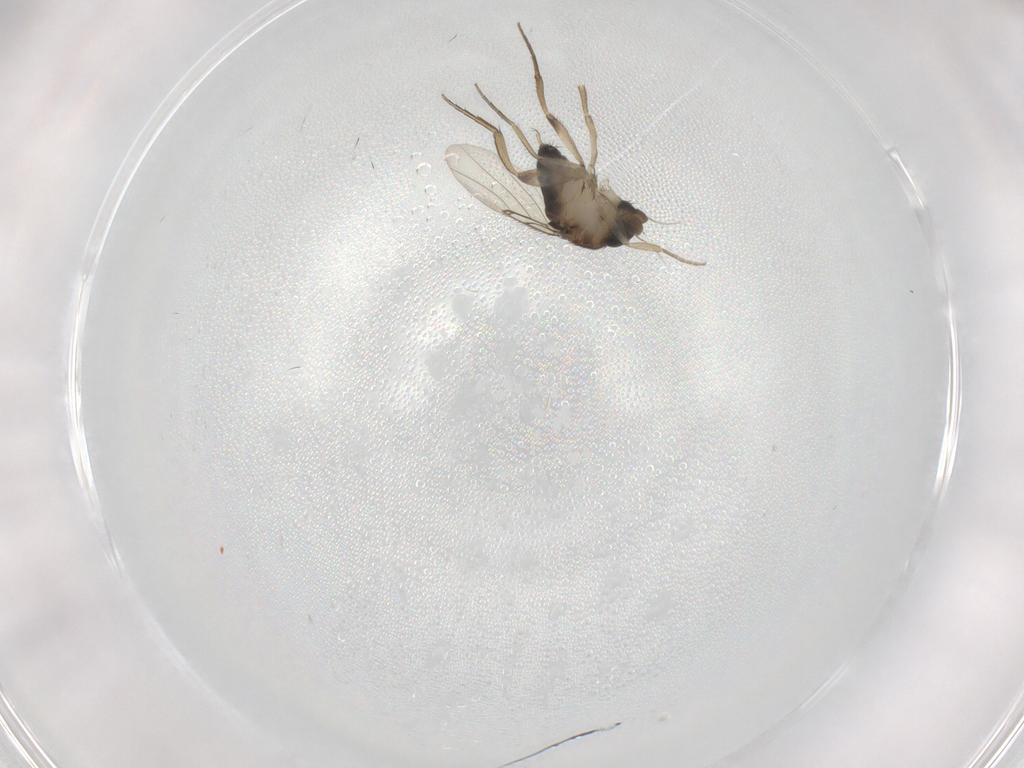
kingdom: Animalia
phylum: Arthropoda
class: Insecta
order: Diptera
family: Phoridae
